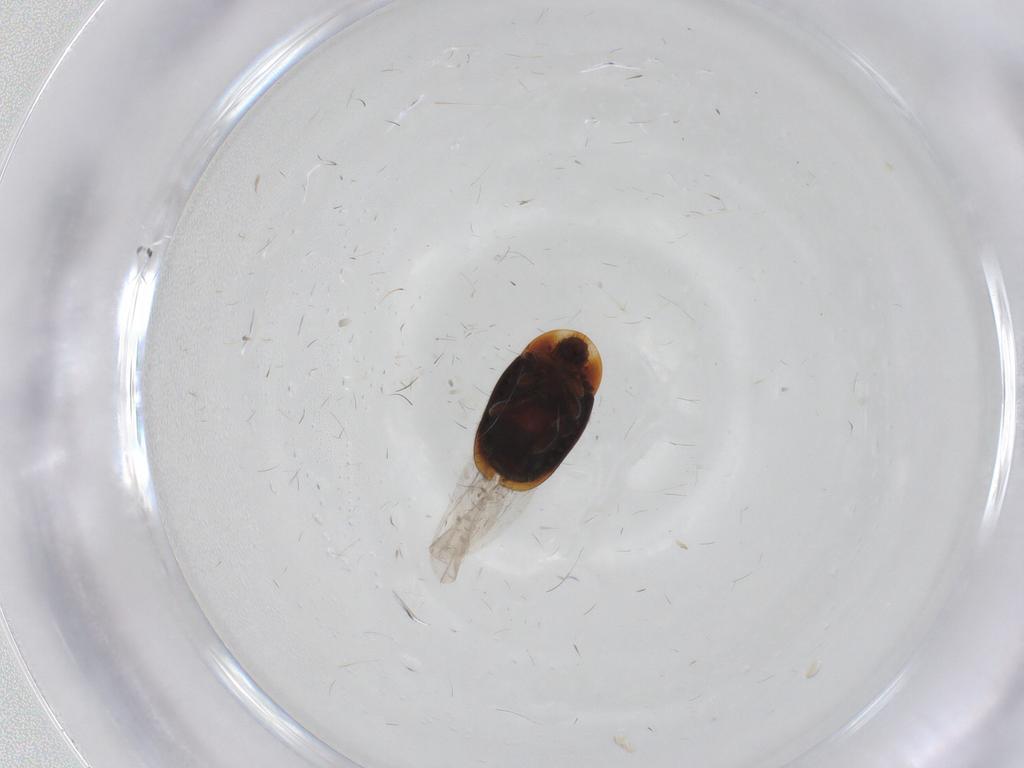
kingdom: Animalia
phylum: Arthropoda
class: Insecta
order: Coleoptera
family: Corylophidae
